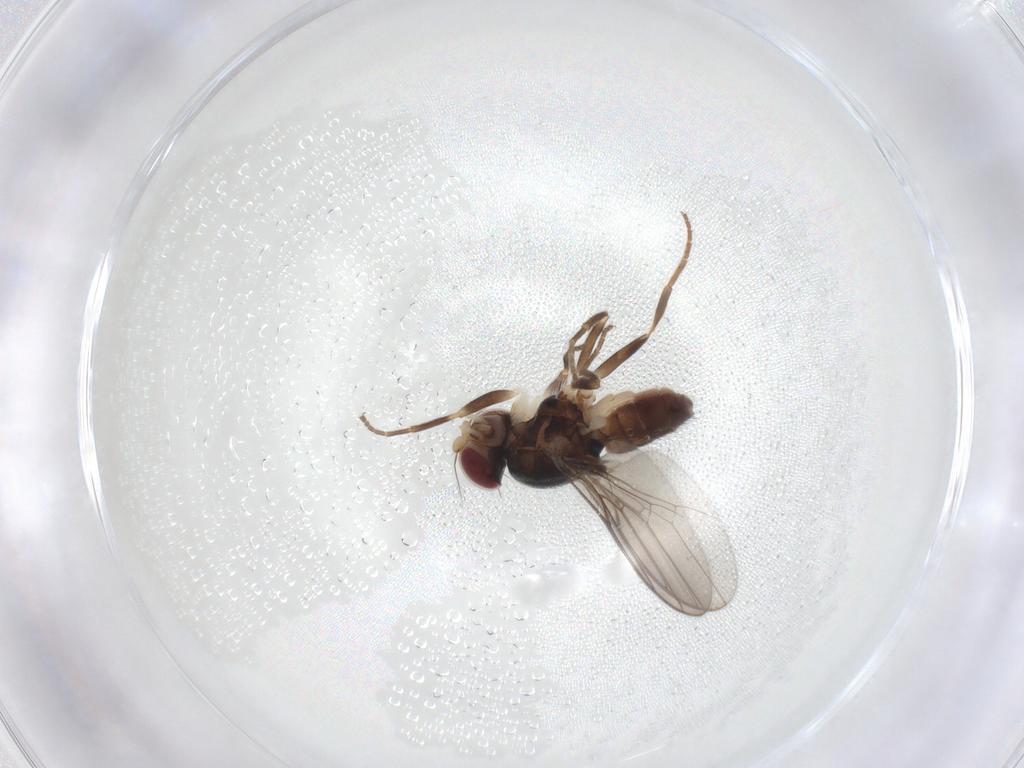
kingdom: Animalia
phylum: Arthropoda
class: Insecta
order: Diptera
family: Chloropidae
